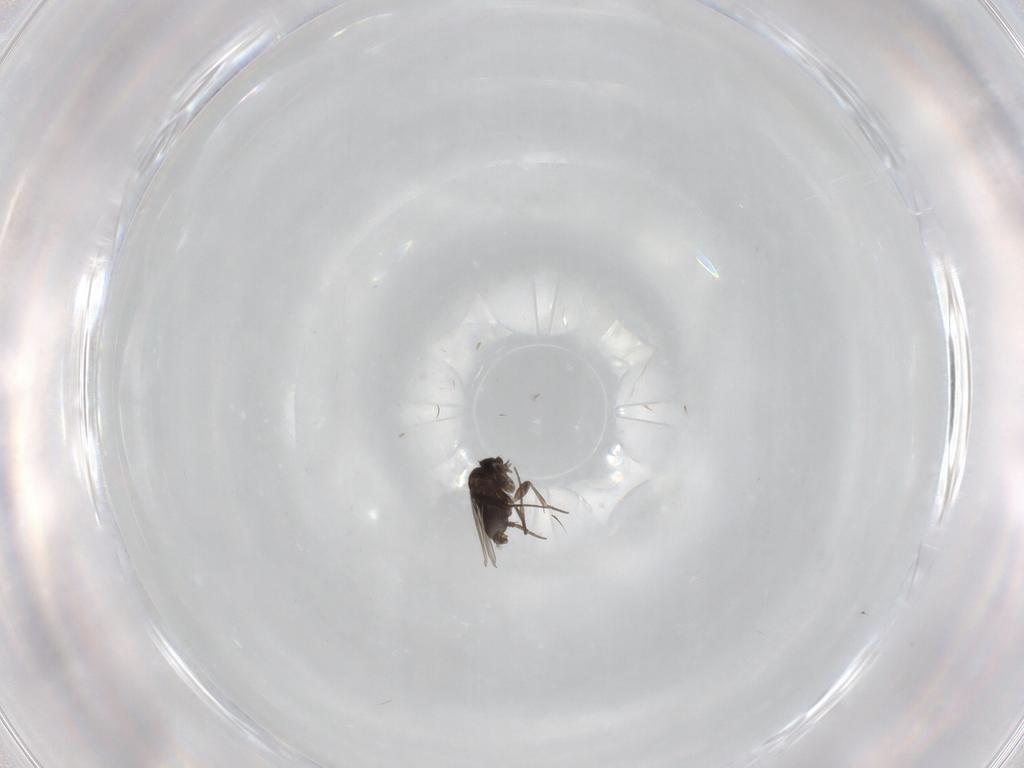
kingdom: Animalia
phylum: Arthropoda
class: Insecta
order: Diptera
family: Phoridae
